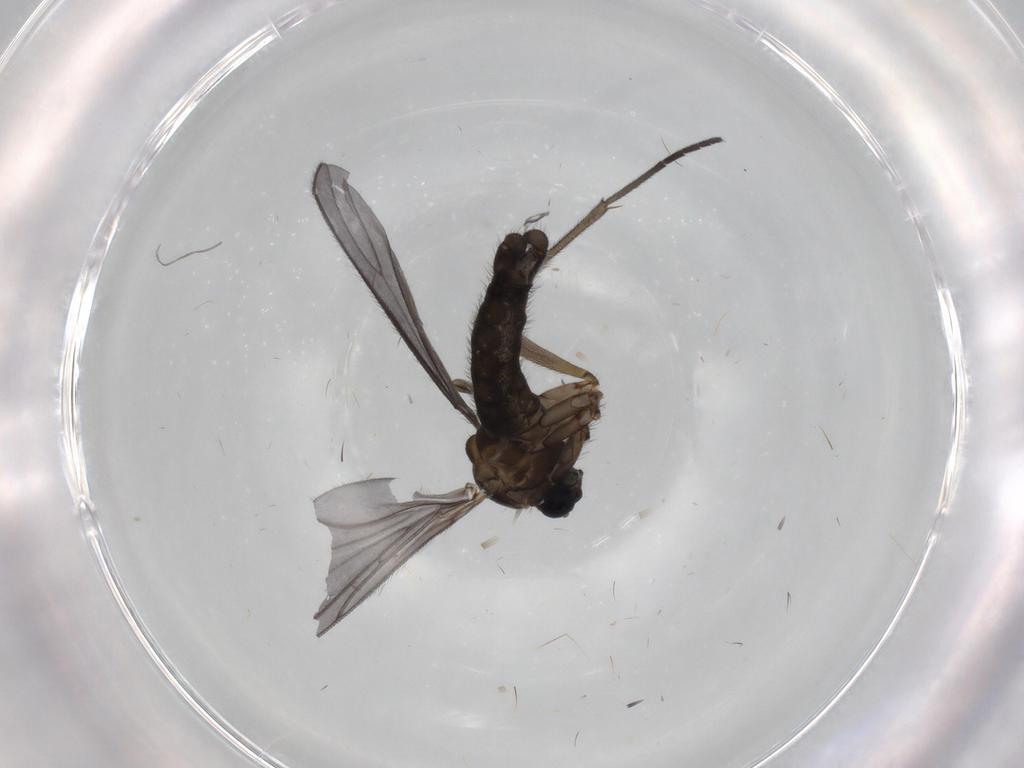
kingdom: Animalia
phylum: Arthropoda
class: Insecta
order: Diptera
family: Sciaridae
